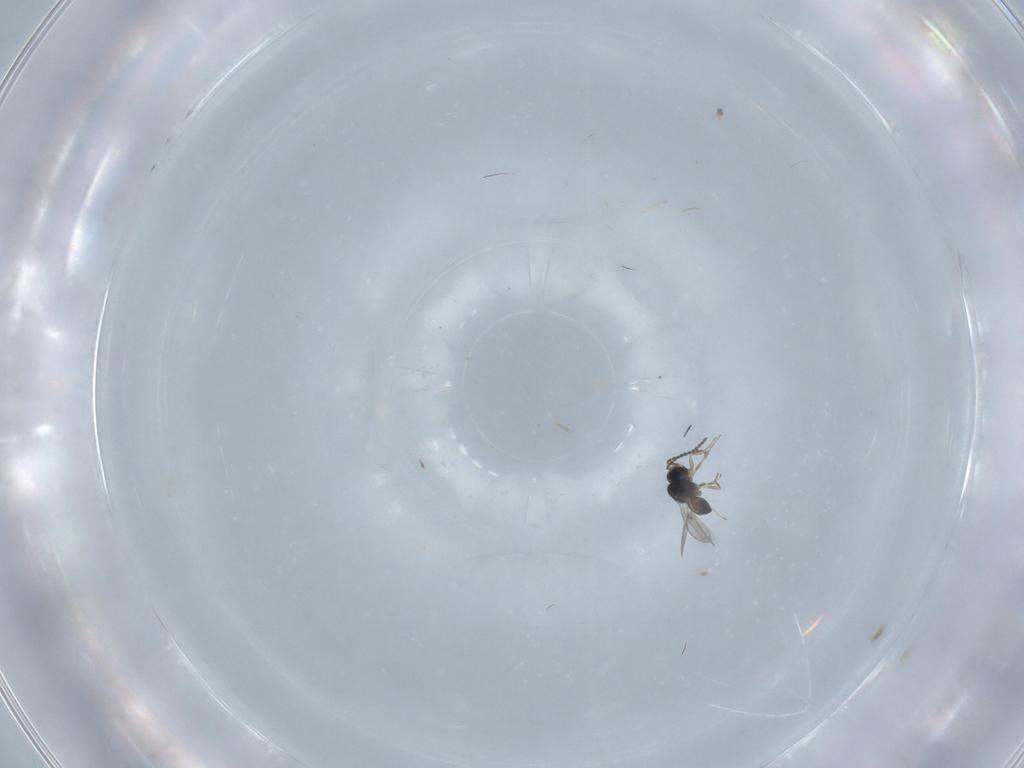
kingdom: Animalia
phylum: Arthropoda
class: Insecta
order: Hymenoptera
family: Scelionidae
